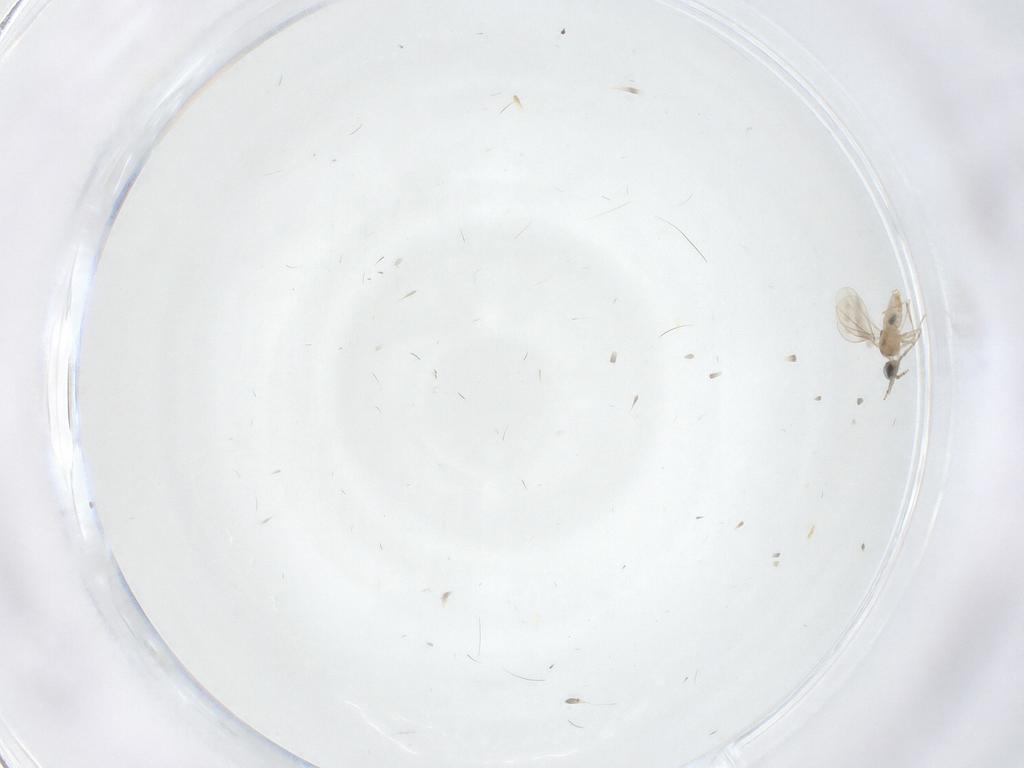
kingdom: Animalia
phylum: Arthropoda
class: Insecta
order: Diptera
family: Cecidomyiidae
